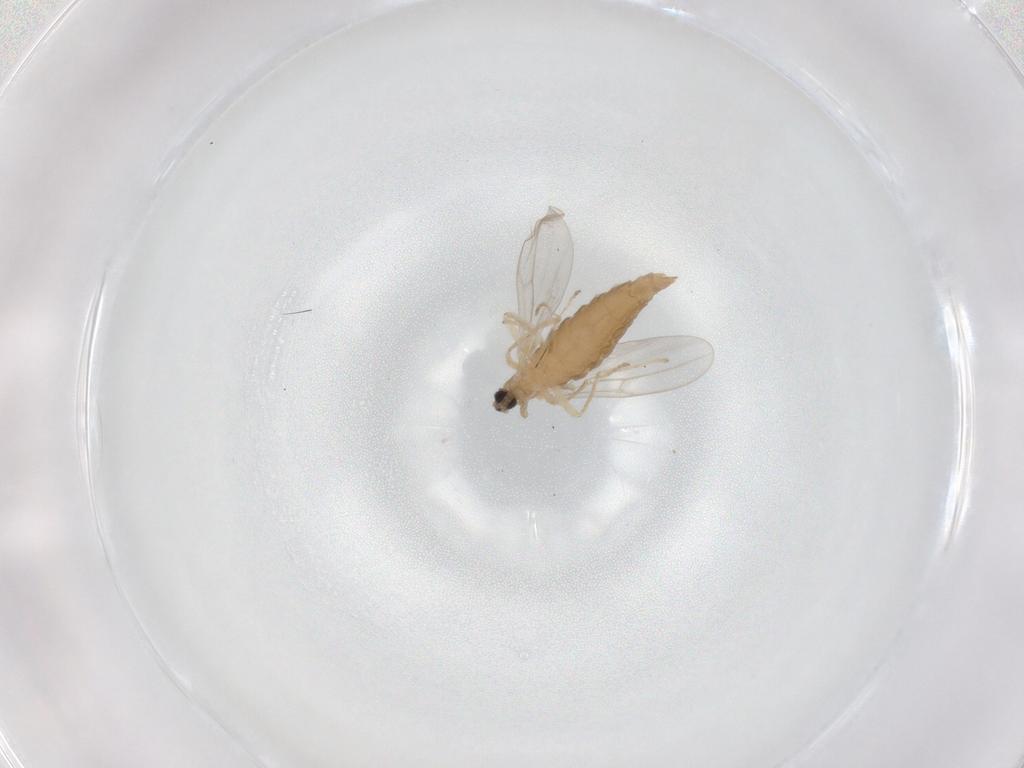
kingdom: Animalia
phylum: Arthropoda
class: Insecta
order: Diptera
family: Cecidomyiidae
